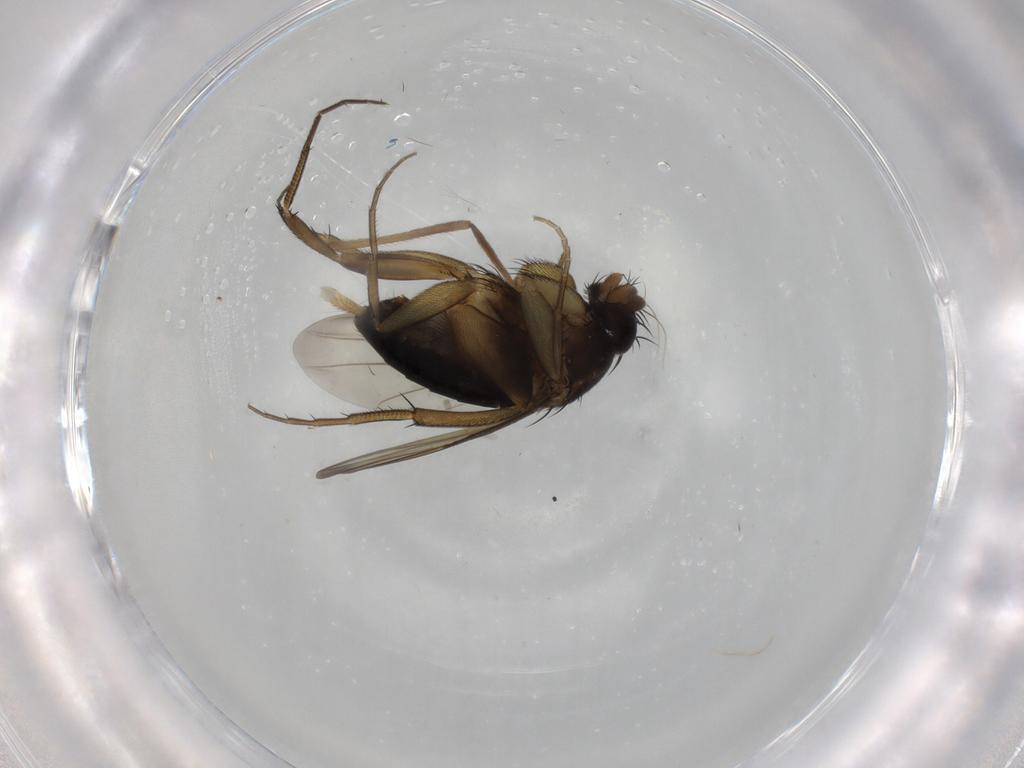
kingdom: Animalia
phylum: Arthropoda
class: Insecta
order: Diptera
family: Phoridae
